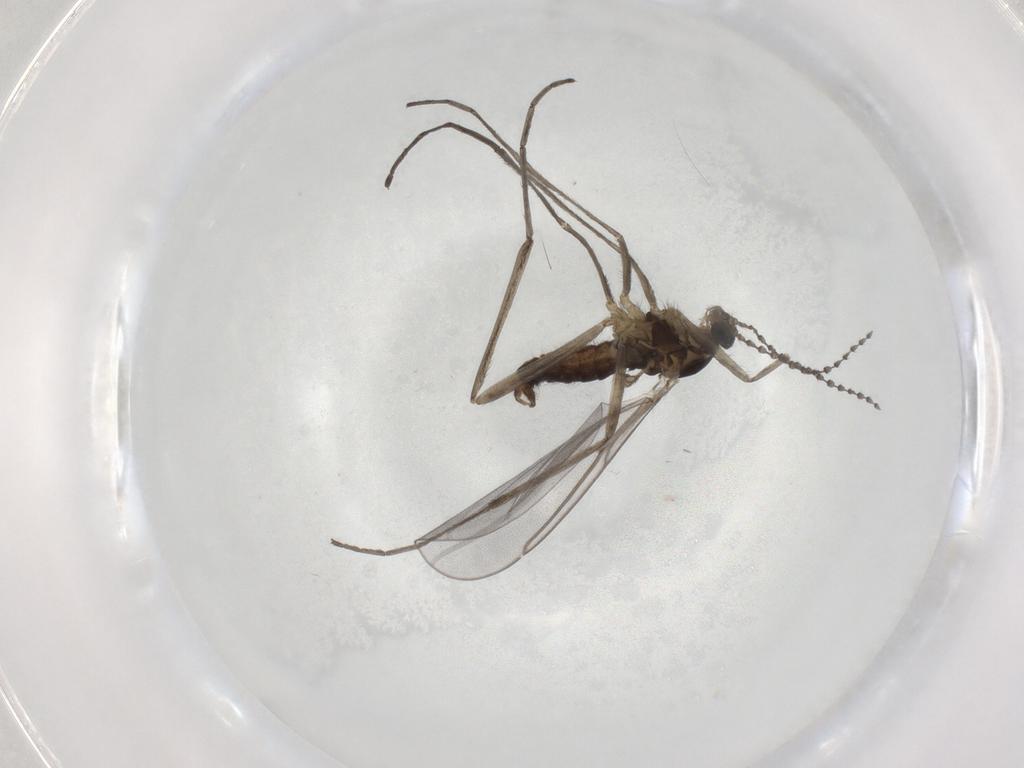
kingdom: Animalia
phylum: Arthropoda
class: Insecta
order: Diptera
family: Cecidomyiidae
